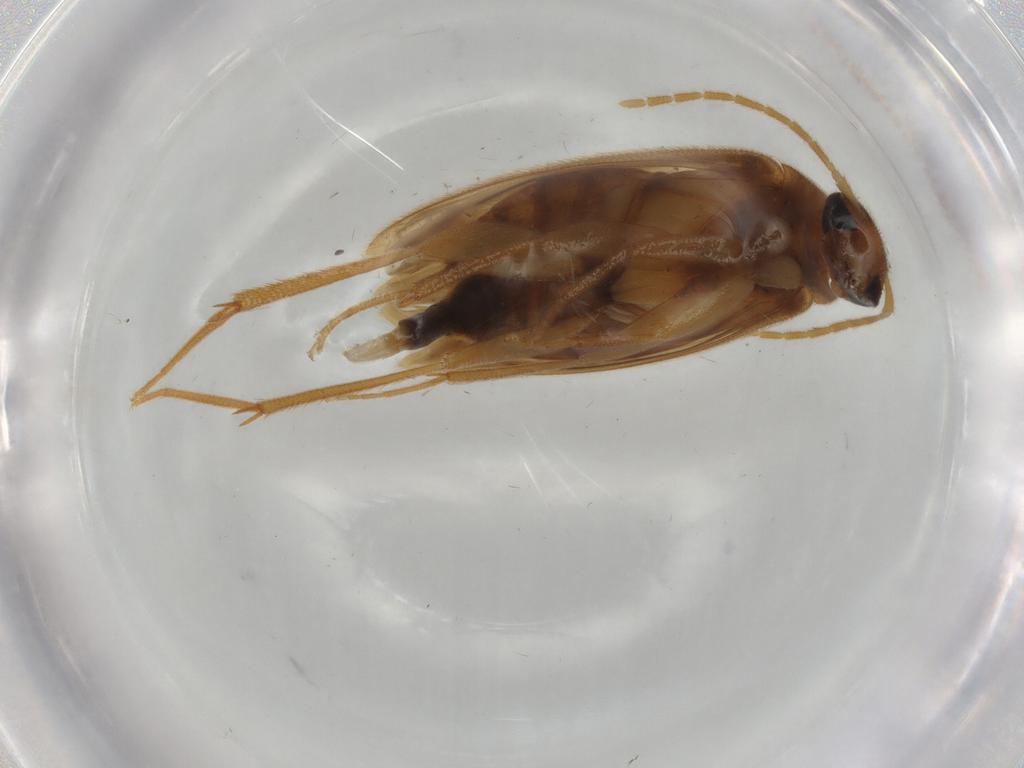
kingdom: Animalia
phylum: Arthropoda
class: Insecta
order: Coleoptera
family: Scraptiidae
